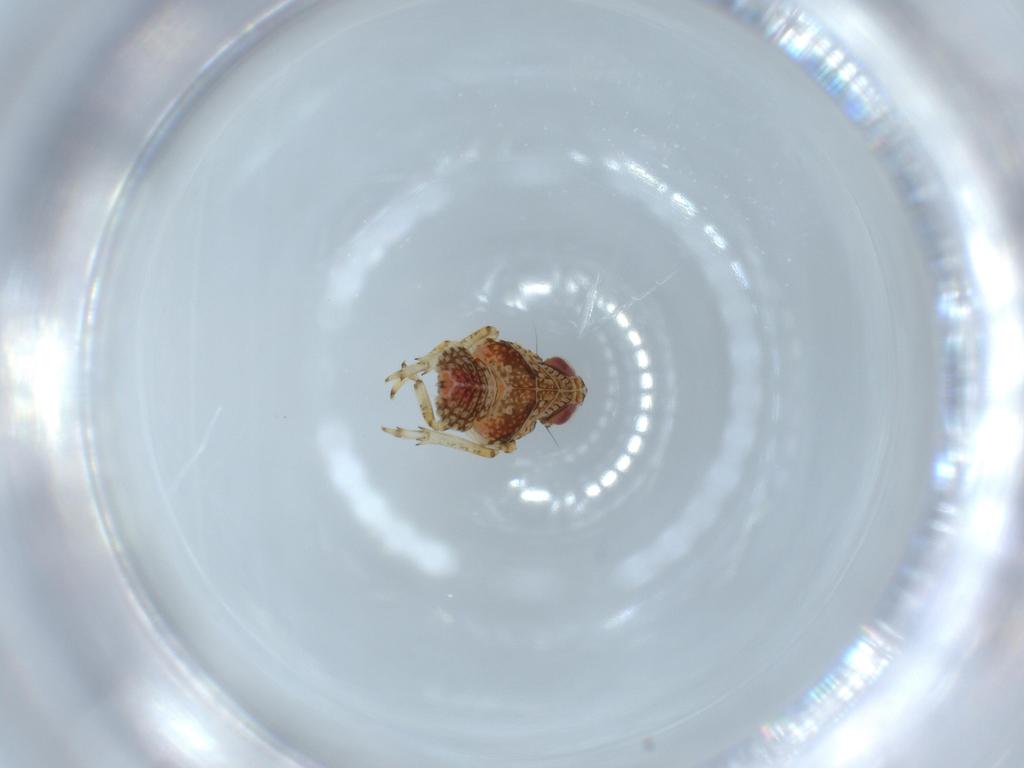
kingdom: Animalia
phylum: Arthropoda
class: Insecta
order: Hemiptera
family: Issidae
